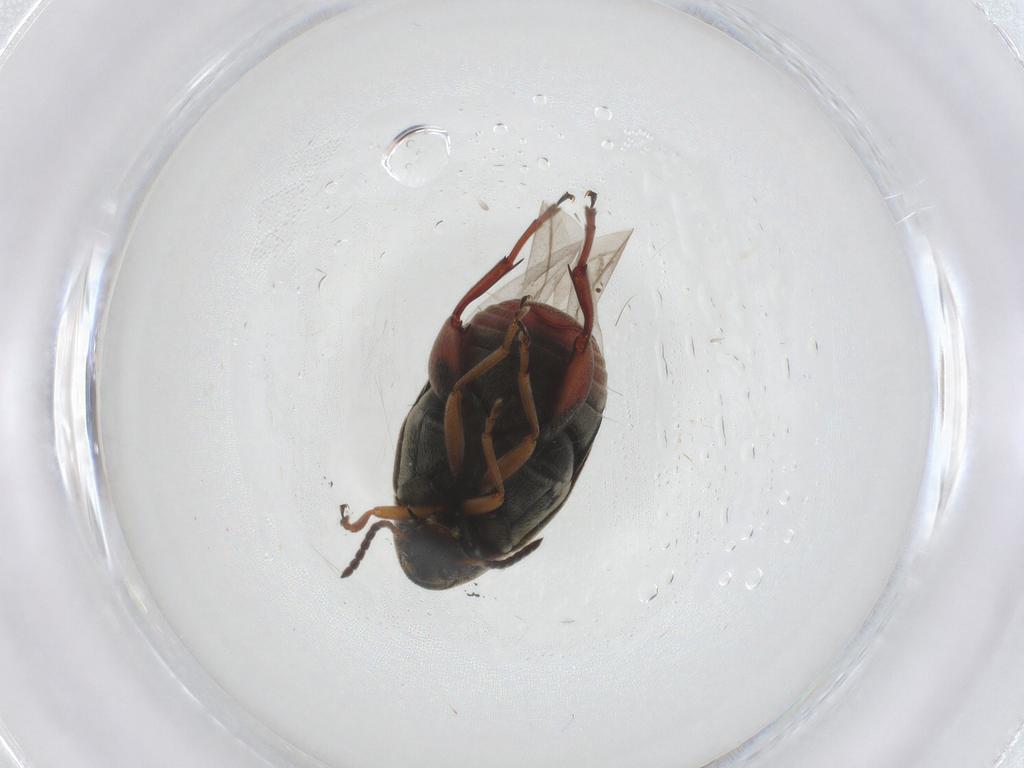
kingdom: Animalia
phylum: Arthropoda
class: Insecta
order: Coleoptera
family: Chrysomelidae
